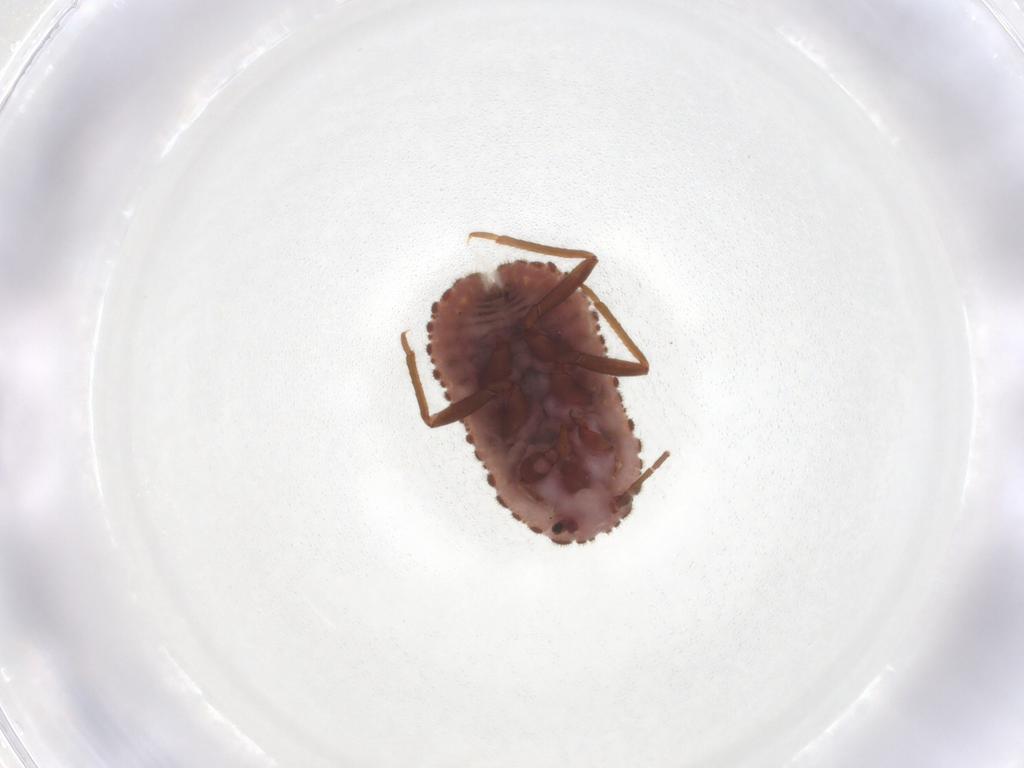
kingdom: Animalia
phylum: Arthropoda
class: Insecta
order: Hemiptera
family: Putoidae
